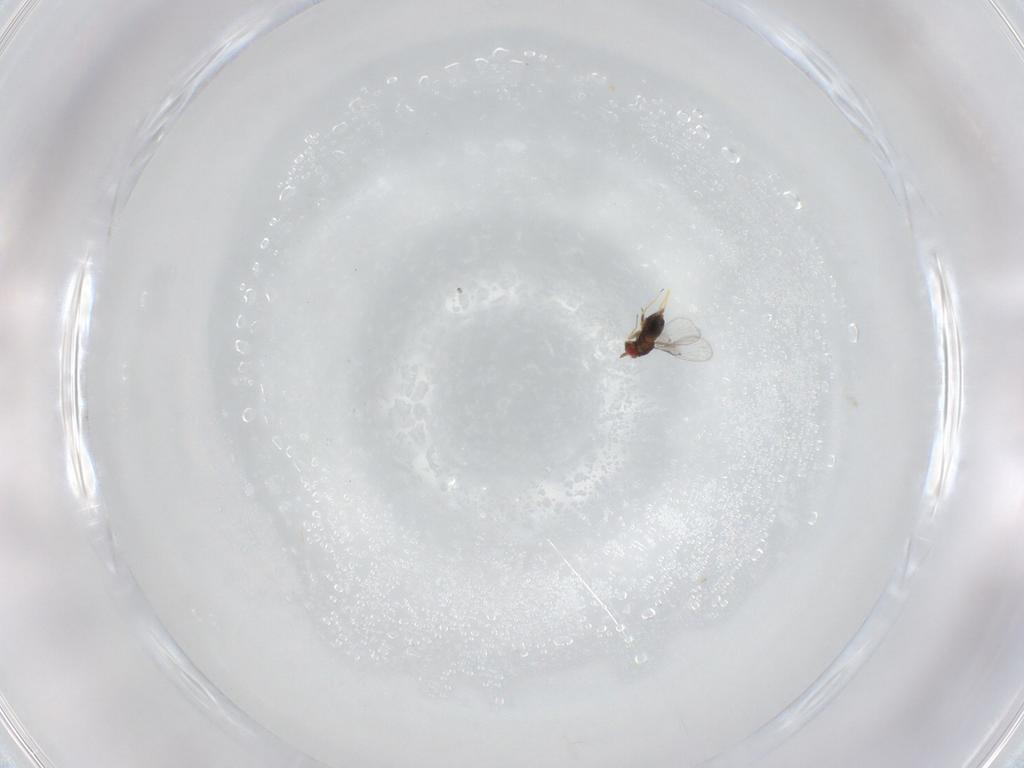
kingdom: Animalia
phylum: Arthropoda
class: Insecta
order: Hymenoptera
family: Trichogrammatidae
